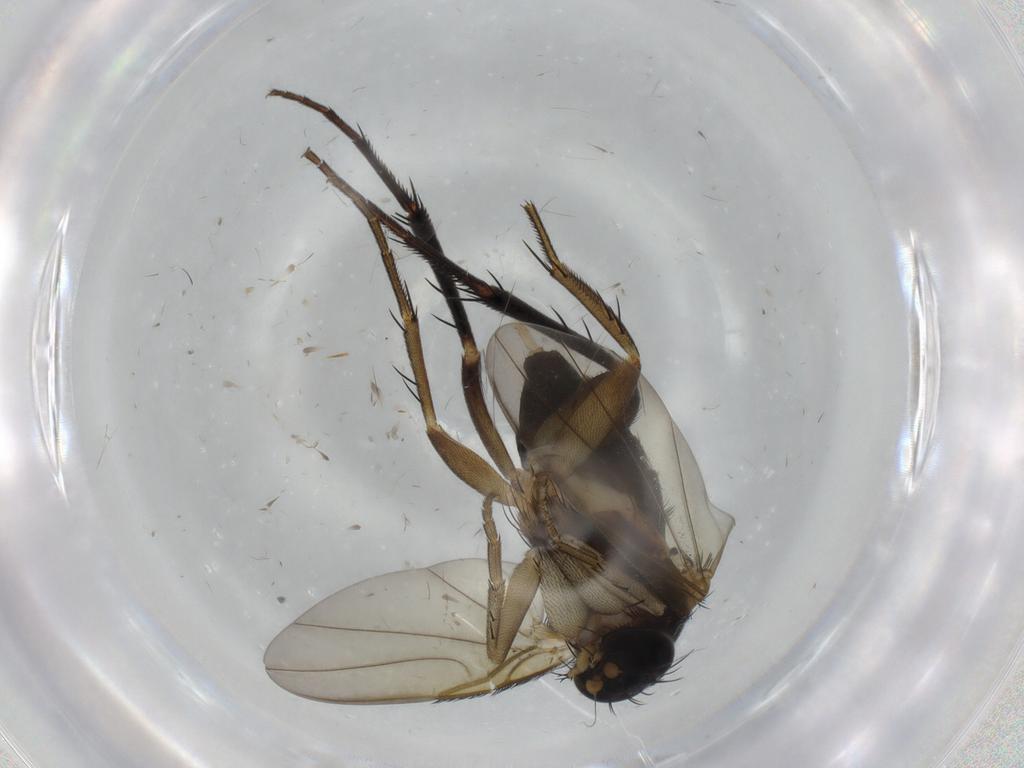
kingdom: Animalia
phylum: Arthropoda
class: Insecta
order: Diptera
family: Phoridae
